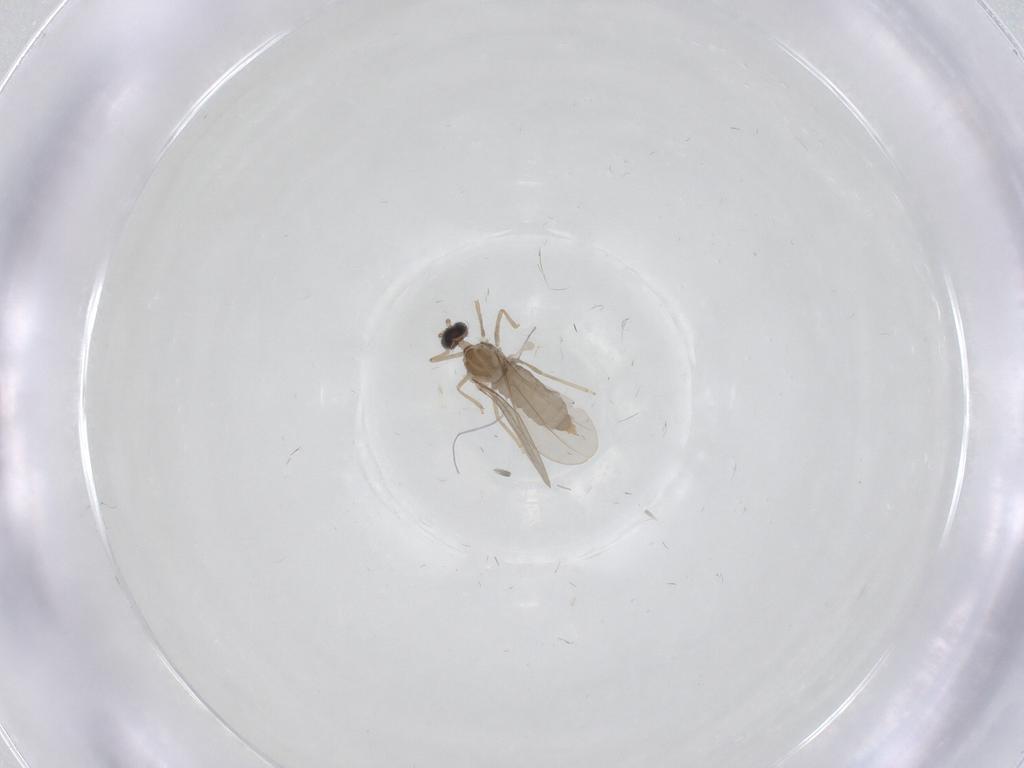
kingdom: Animalia
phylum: Arthropoda
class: Insecta
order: Diptera
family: Cecidomyiidae
